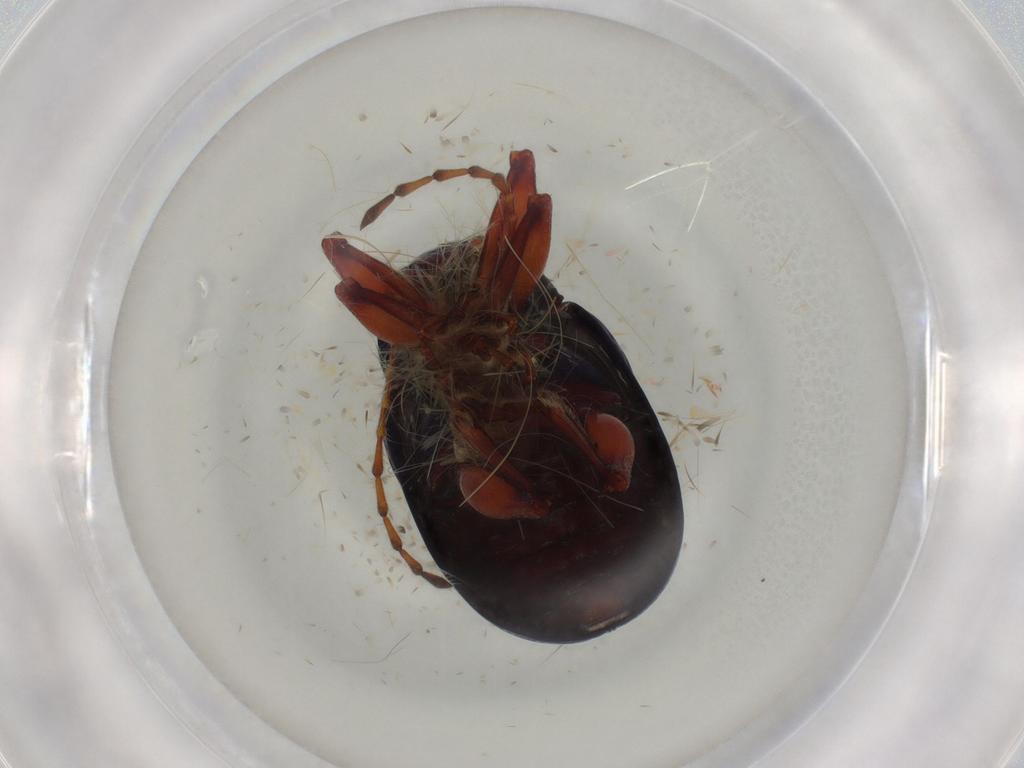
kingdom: Animalia
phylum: Arthropoda
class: Insecta
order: Coleoptera
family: Chrysomelidae
